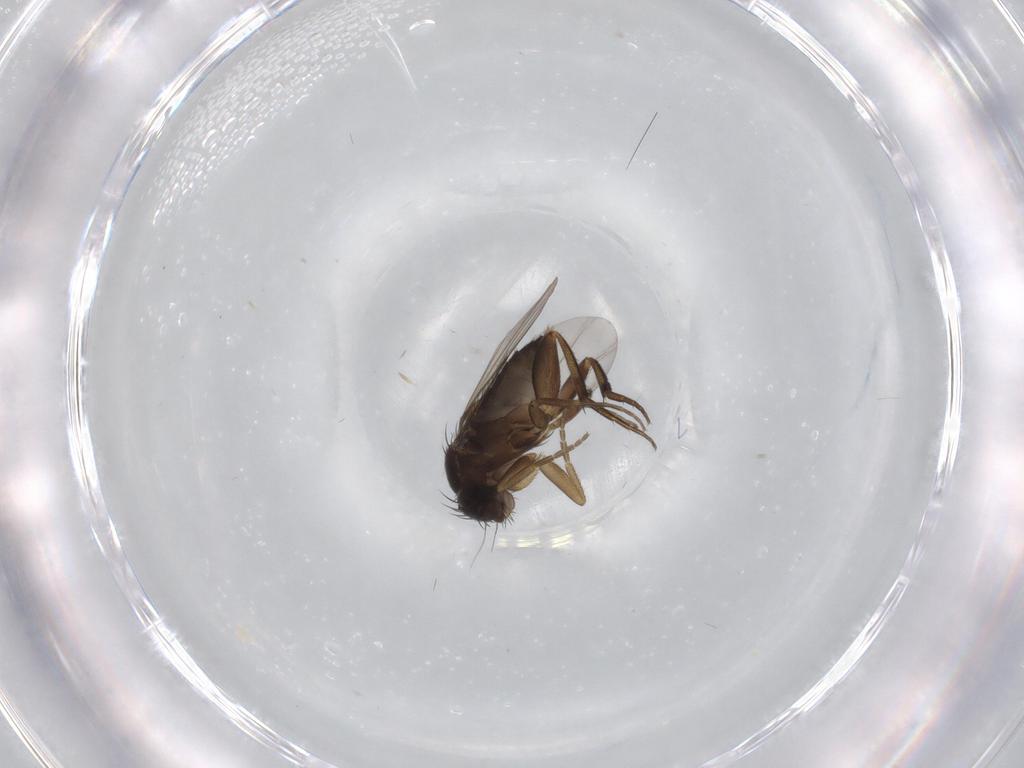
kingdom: Animalia
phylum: Arthropoda
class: Insecta
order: Diptera
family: Phoridae
